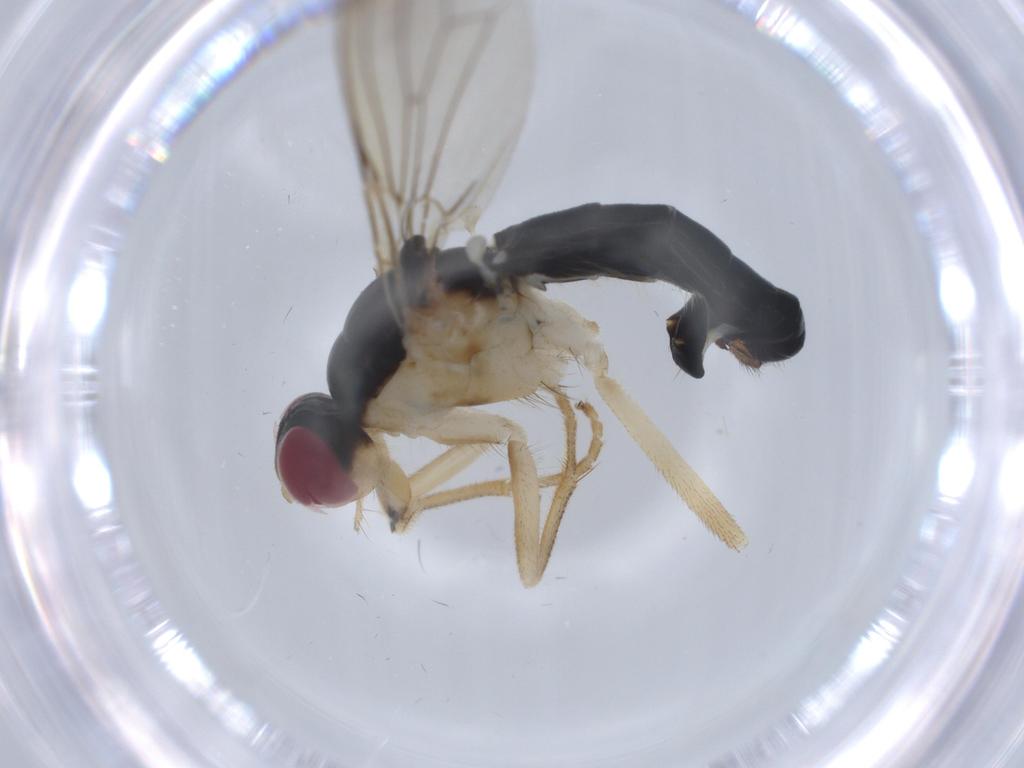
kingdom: Animalia
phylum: Arthropoda
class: Insecta
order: Diptera
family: Scathophagidae
